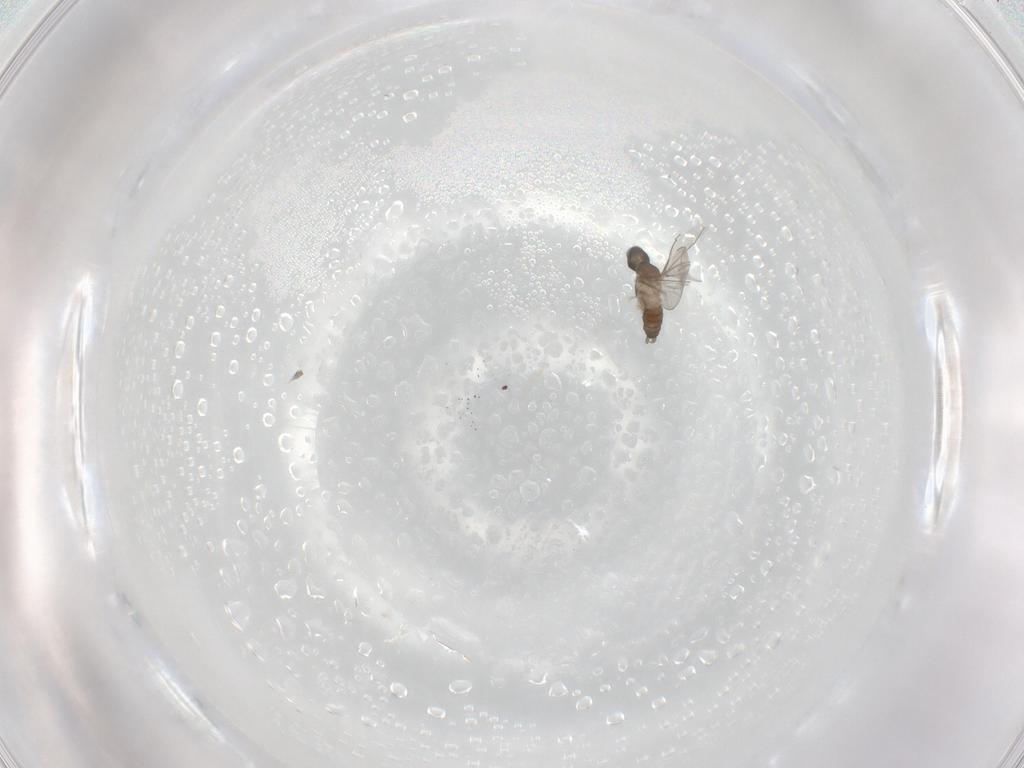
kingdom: Animalia
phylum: Arthropoda
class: Insecta
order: Diptera
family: Cecidomyiidae
